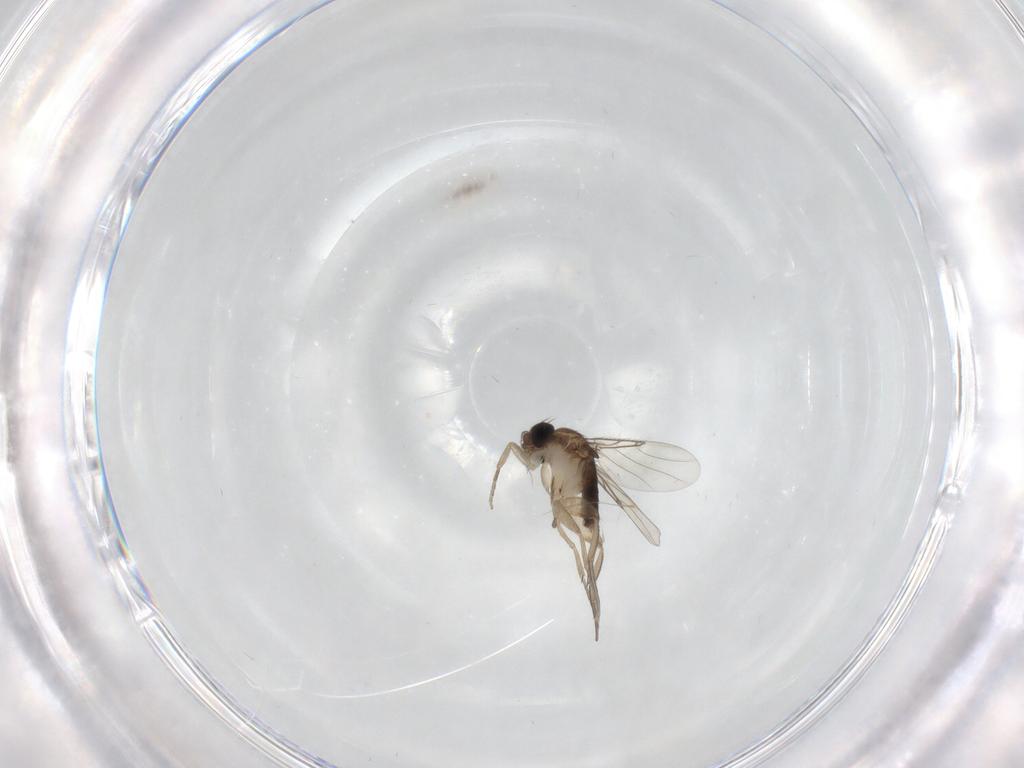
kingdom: Animalia
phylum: Arthropoda
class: Insecta
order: Diptera
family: Phoridae
